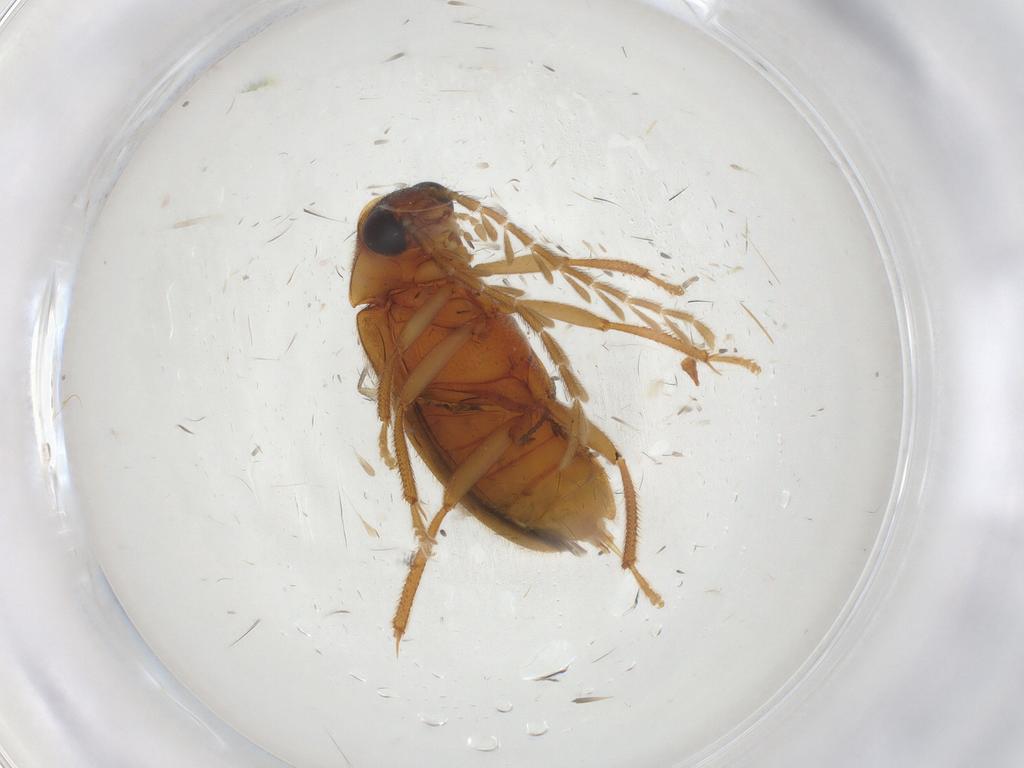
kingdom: Animalia
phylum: Arthropoda
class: Insecta
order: Coleoptera
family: Ptilodactylidae
